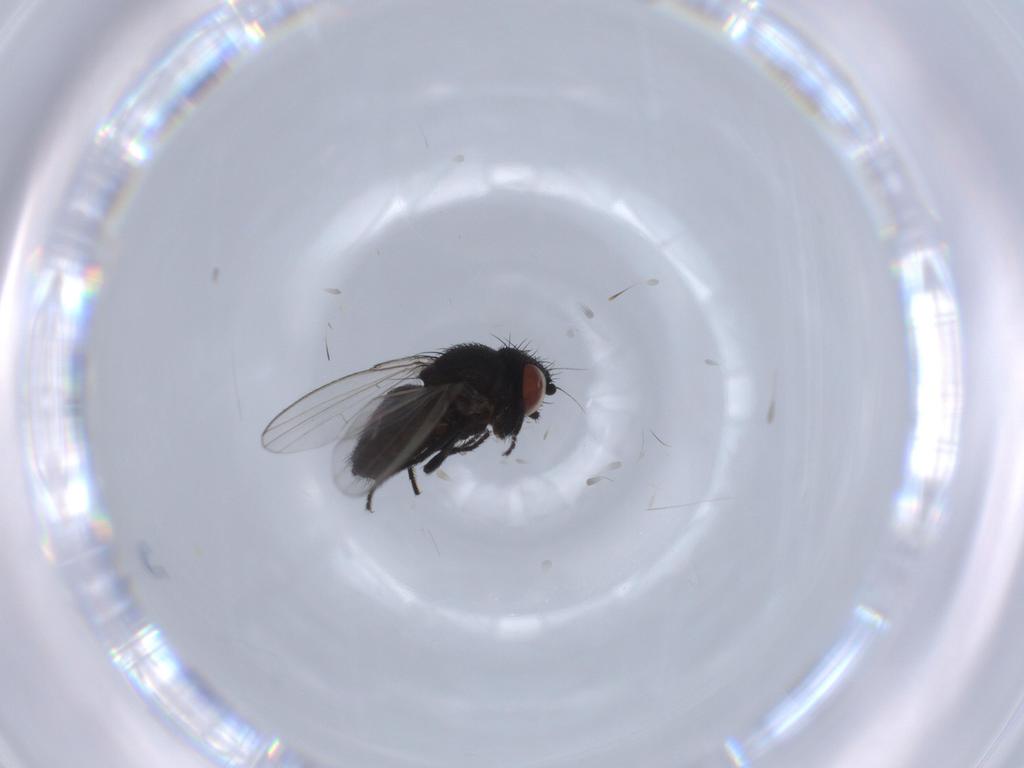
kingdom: Animalia
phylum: Arthropoda
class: Insecta
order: Diptera
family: Milichiidae
